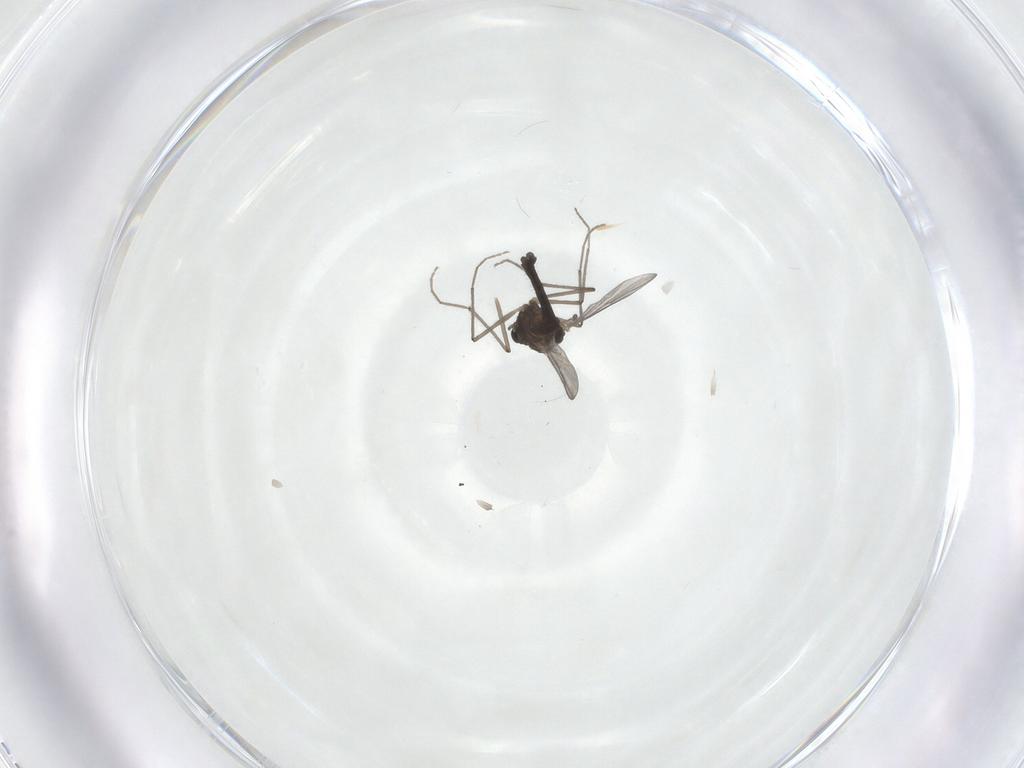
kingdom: Animalia
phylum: Arthropoda
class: Insecta
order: Diptera
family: Chironomidae
